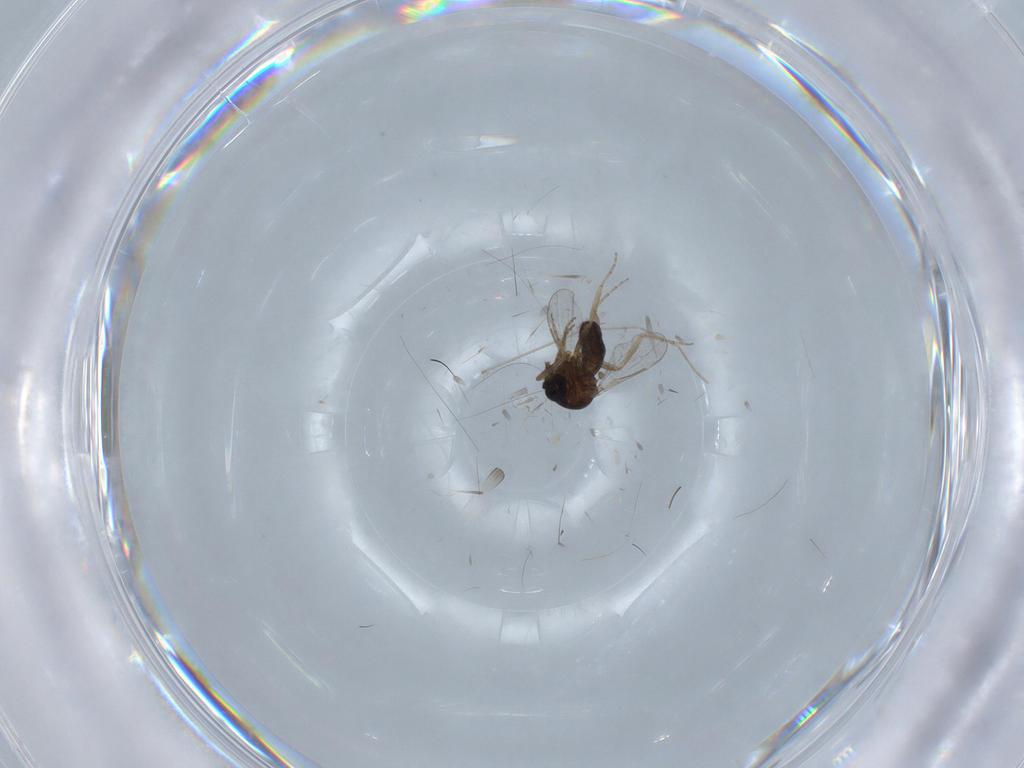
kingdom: Animalia
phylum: Arthropoda
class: Insecta
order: Diptera
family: Ceratopogonidae
